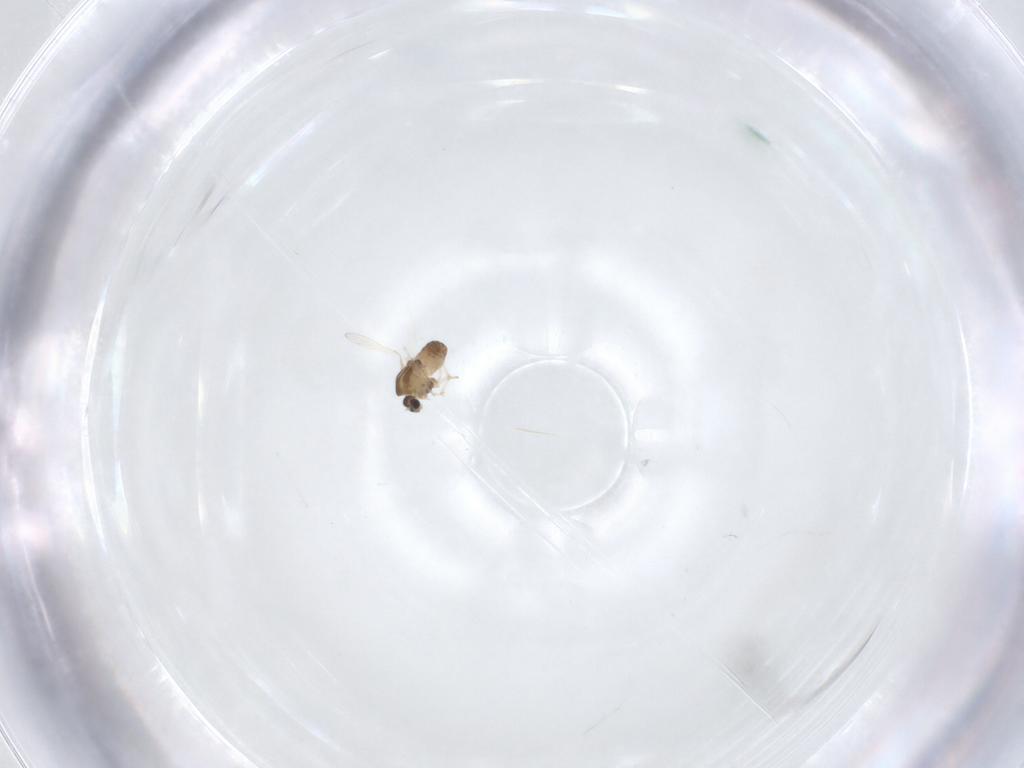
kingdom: Animalia
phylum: Arthropoda
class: Insecta
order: Diptera
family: Chironomidae
